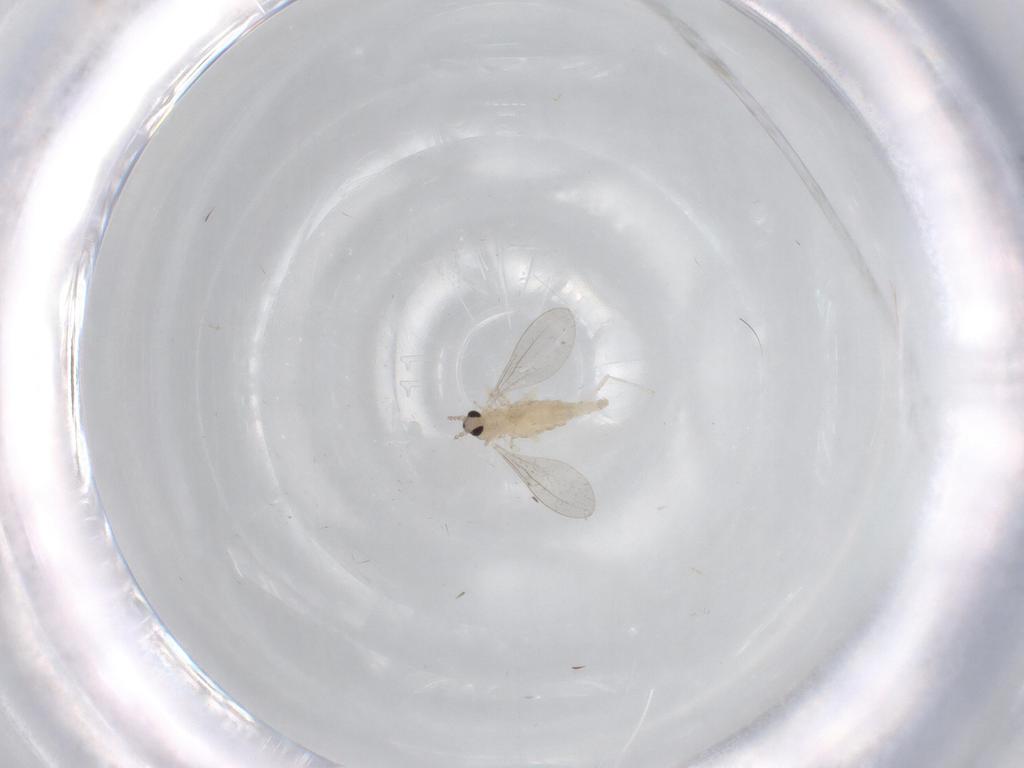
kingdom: Animalia
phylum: Arthropoda
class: Insecta
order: Diptera
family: Cecidomyiidae
